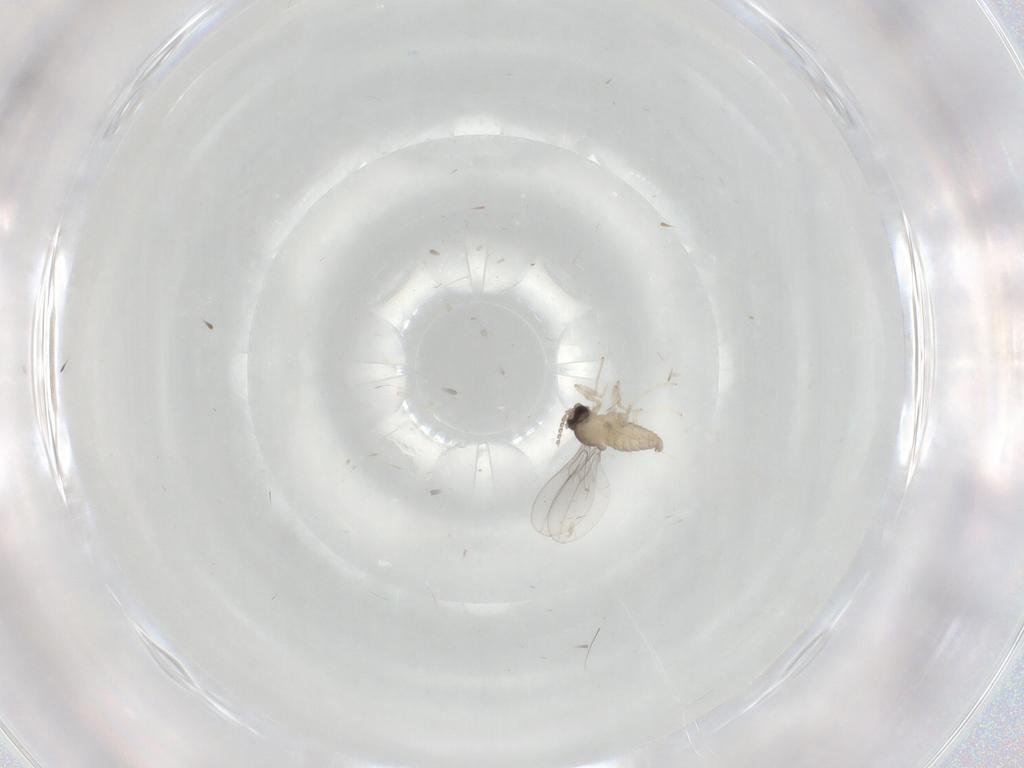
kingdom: Animalia
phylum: Arthropoda
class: Insecta
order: Diptera
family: Cecidomyiidae
